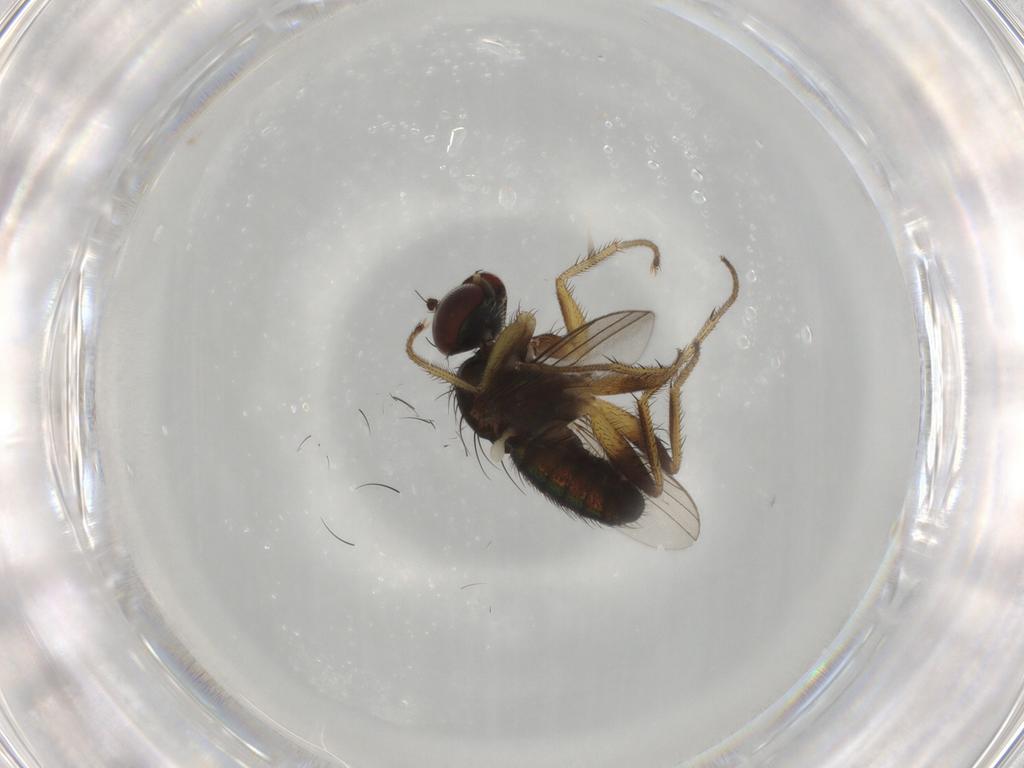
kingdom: Animalia
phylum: Arthropoda
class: Insecta
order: Diptera
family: Dolichopodidae
